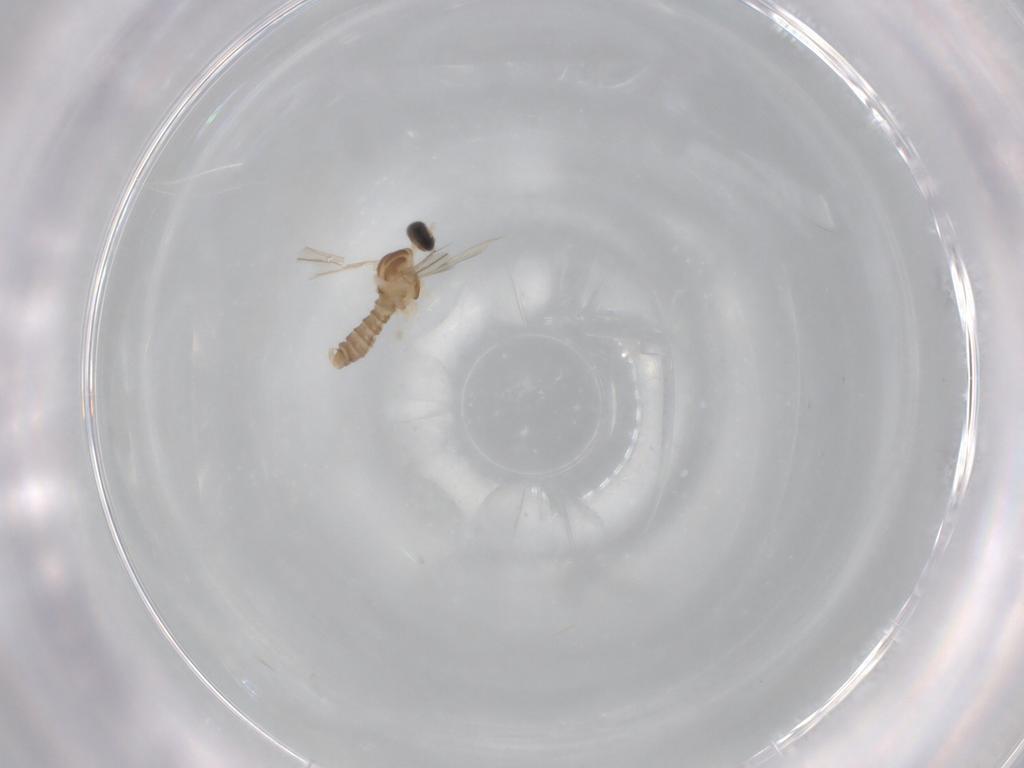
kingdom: Animalia
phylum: Arthropoda
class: Insecta
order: Diptera
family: Cecidomyiidae
